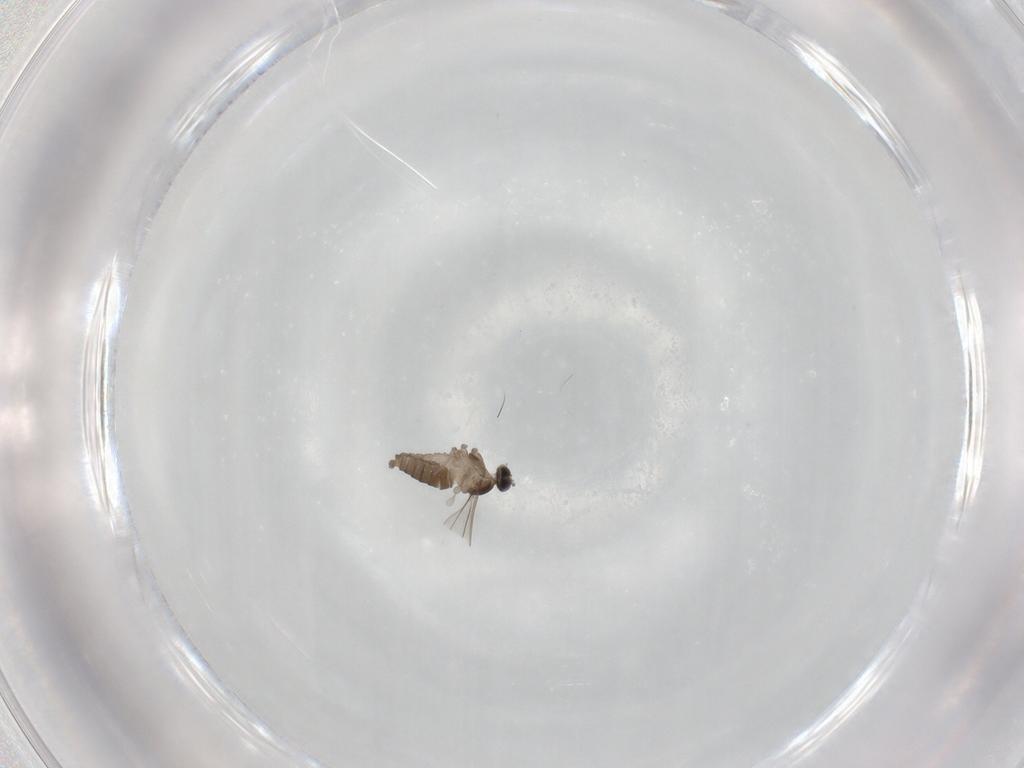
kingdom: Animalia
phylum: Arthropoda
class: Insecta
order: Diptera
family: Cecidomyiidae
